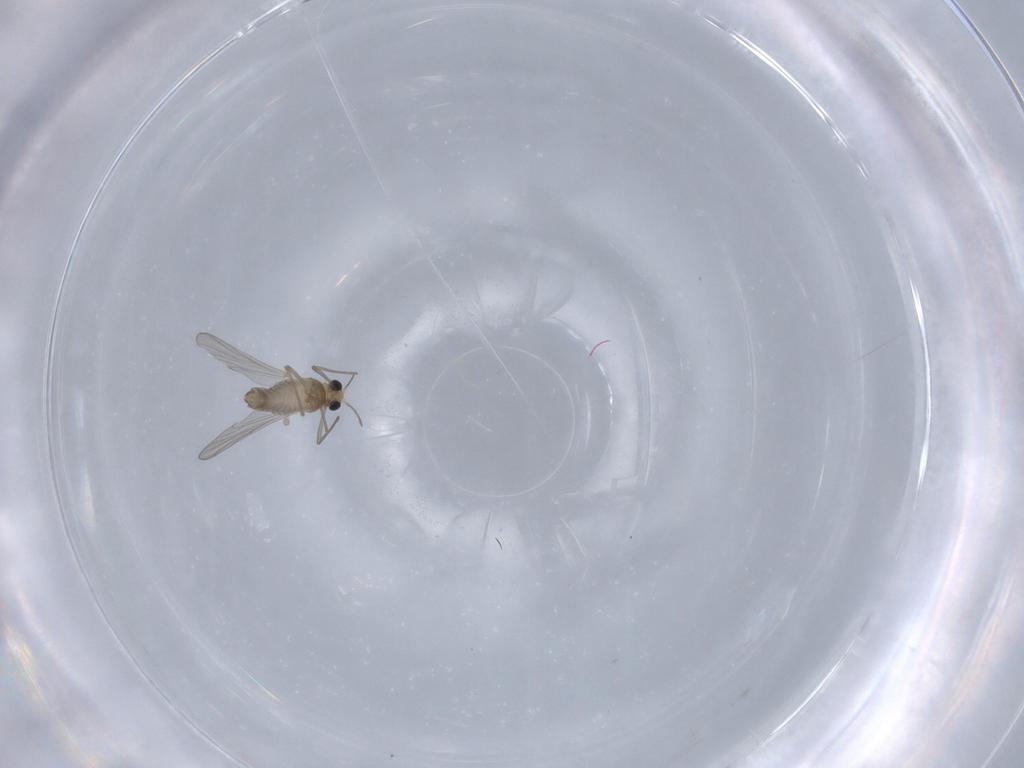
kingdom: Animalia
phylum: Arthropoda
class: Insecta
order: Diptera
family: Chironomidae
